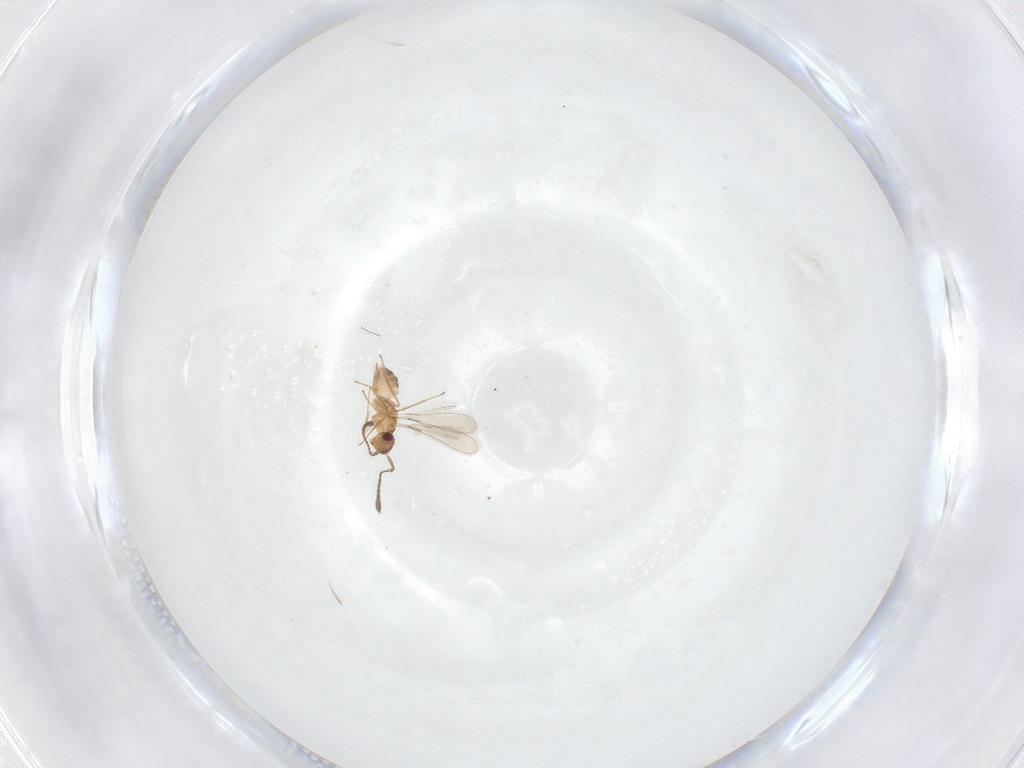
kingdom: Animalia
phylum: Arthropoda
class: Insecta
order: Hymenoptera
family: Mymaridae
